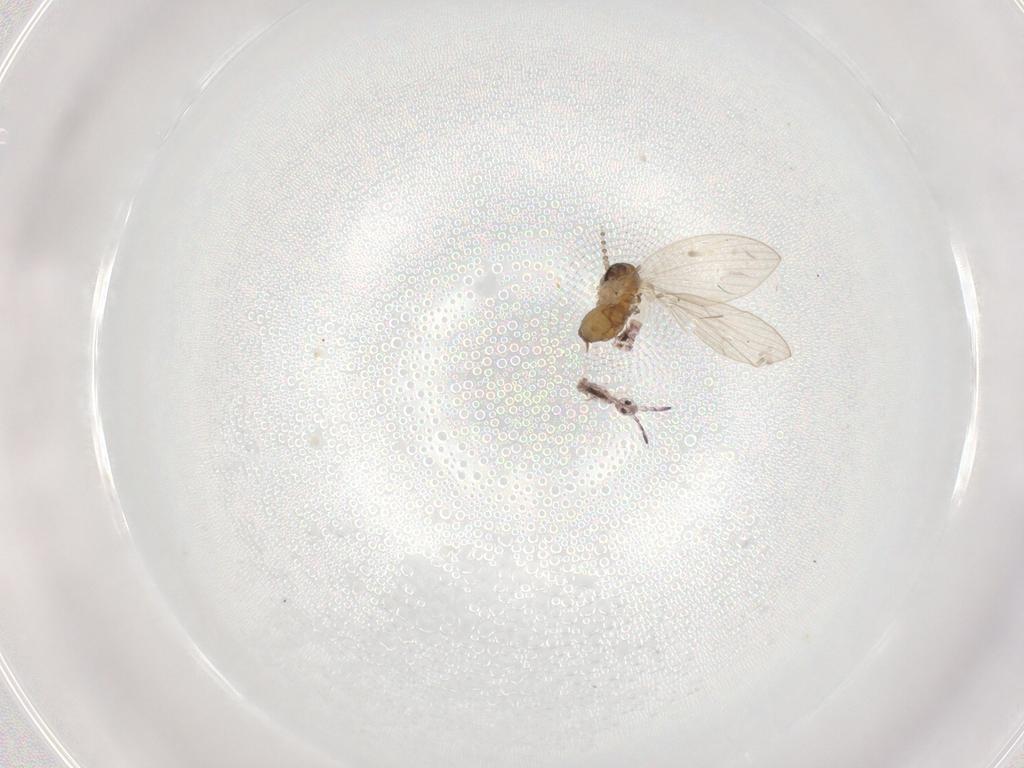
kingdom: Animalia
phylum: Arthropoda
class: Insecta
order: Diptera
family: Psychodidae
